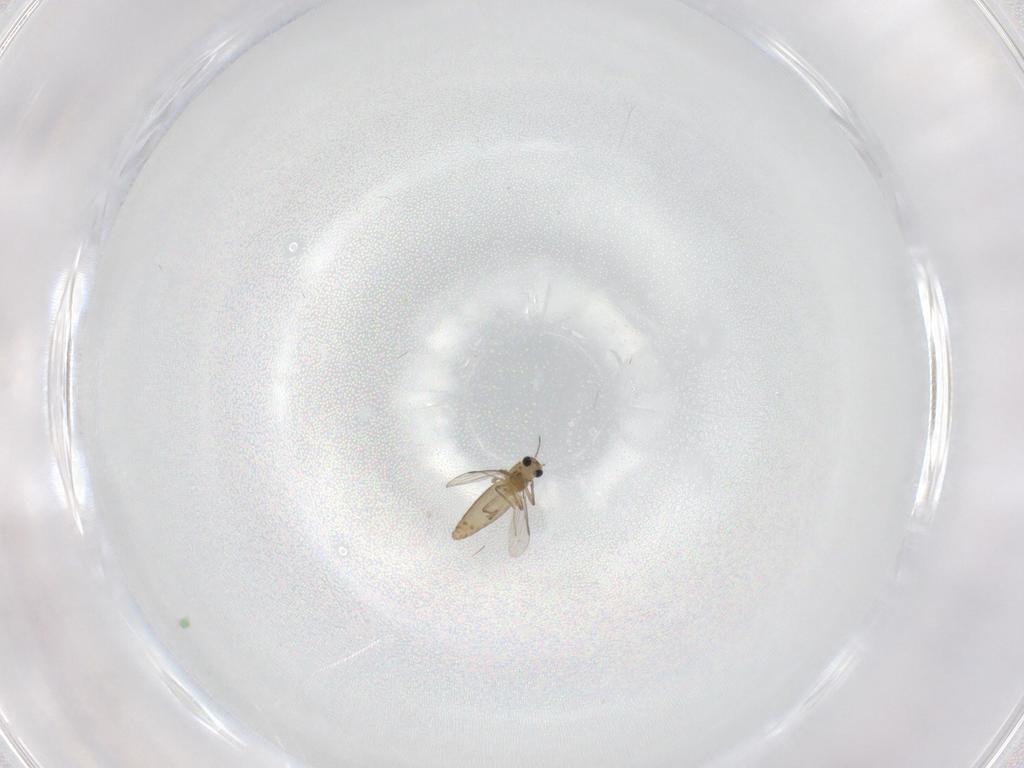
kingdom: Animalia
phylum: Arthropoda
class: Insecta
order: Diptera
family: Chironomidae
